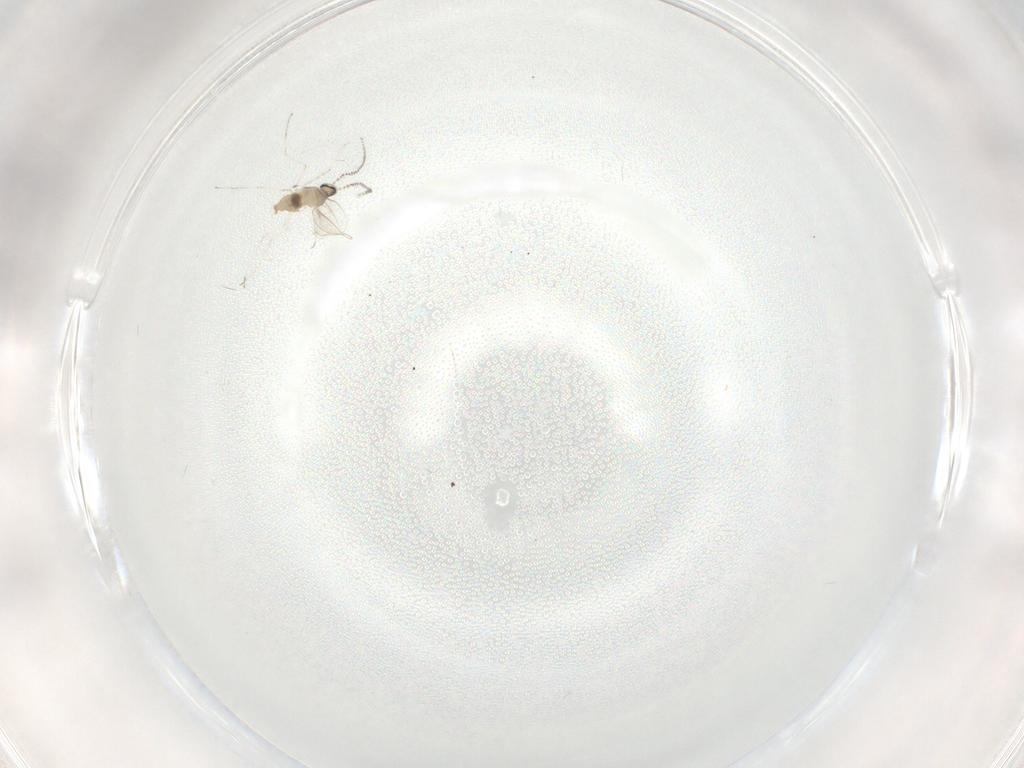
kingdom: Animalia
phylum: Arthropoda
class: Insecta
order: Diptera
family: Cecidomyiidae
